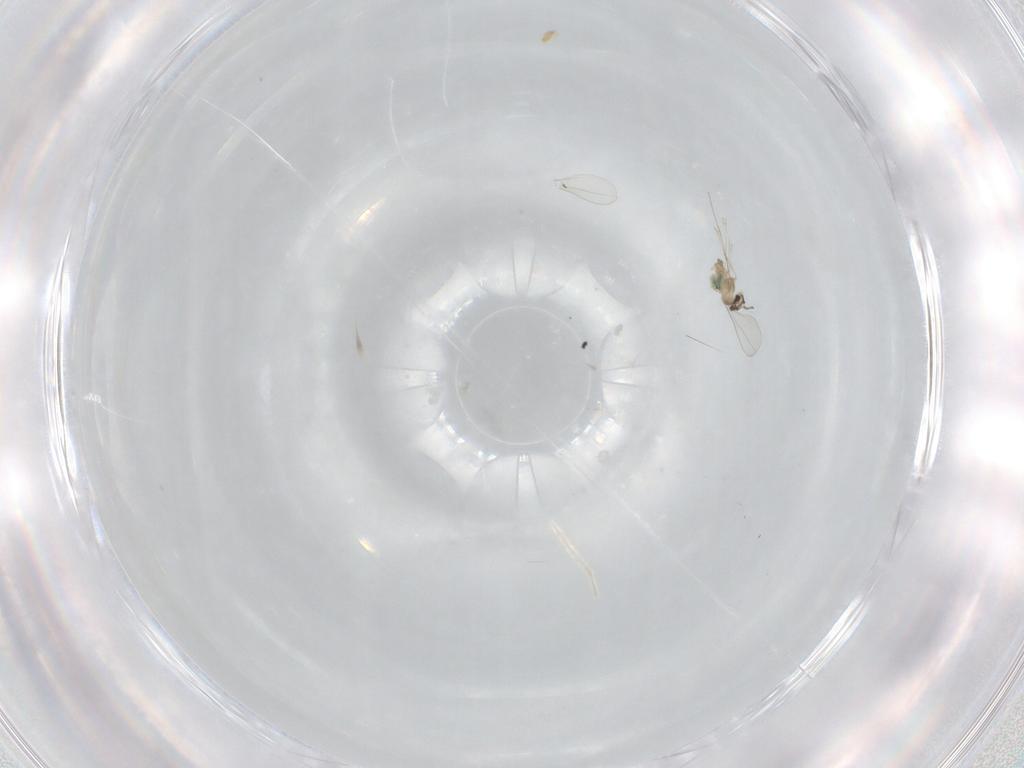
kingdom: Animalia
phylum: Arthropoda
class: Insecta
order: Diptera
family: Cecidomyiidae
